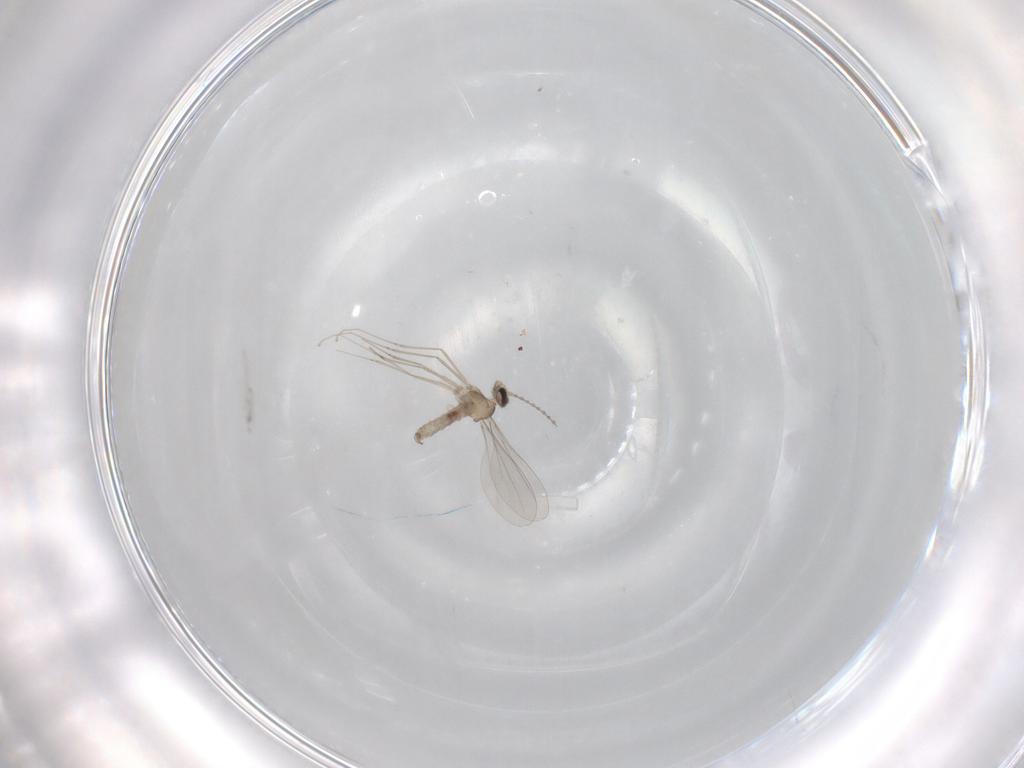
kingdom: Animalia
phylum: Arthropoda
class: Insecta
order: Diptera
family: Cecidomyiidae
